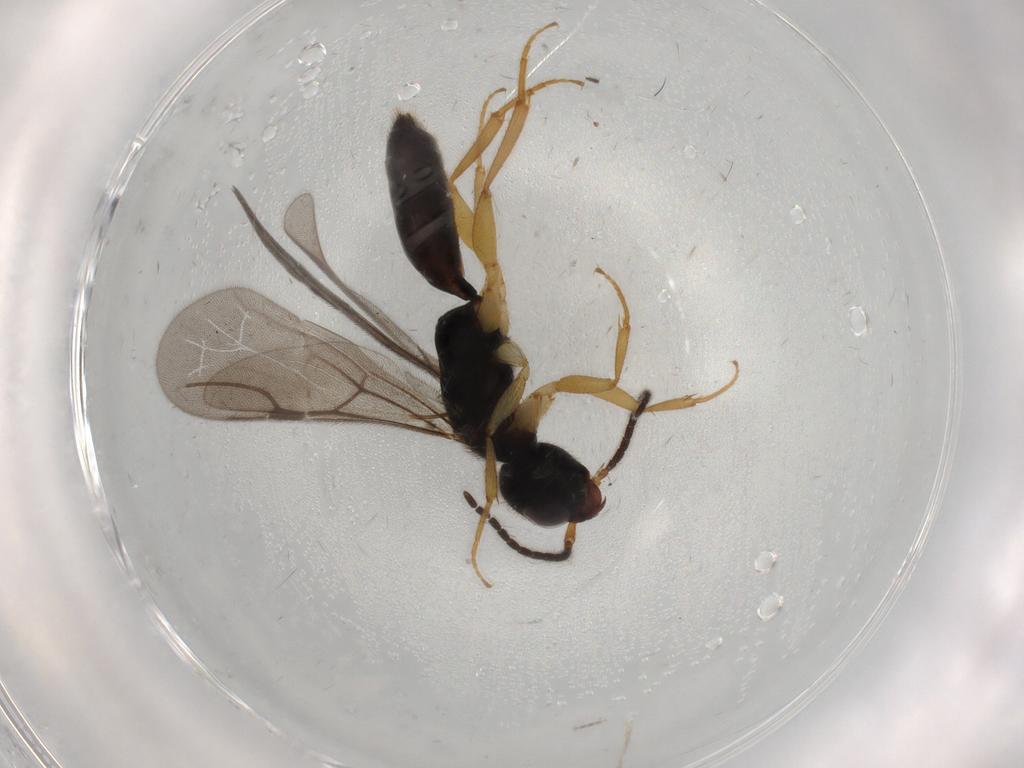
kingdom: Animalia
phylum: Arthropoda
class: Insecta
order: Hymenoptera
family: Bethylidae
